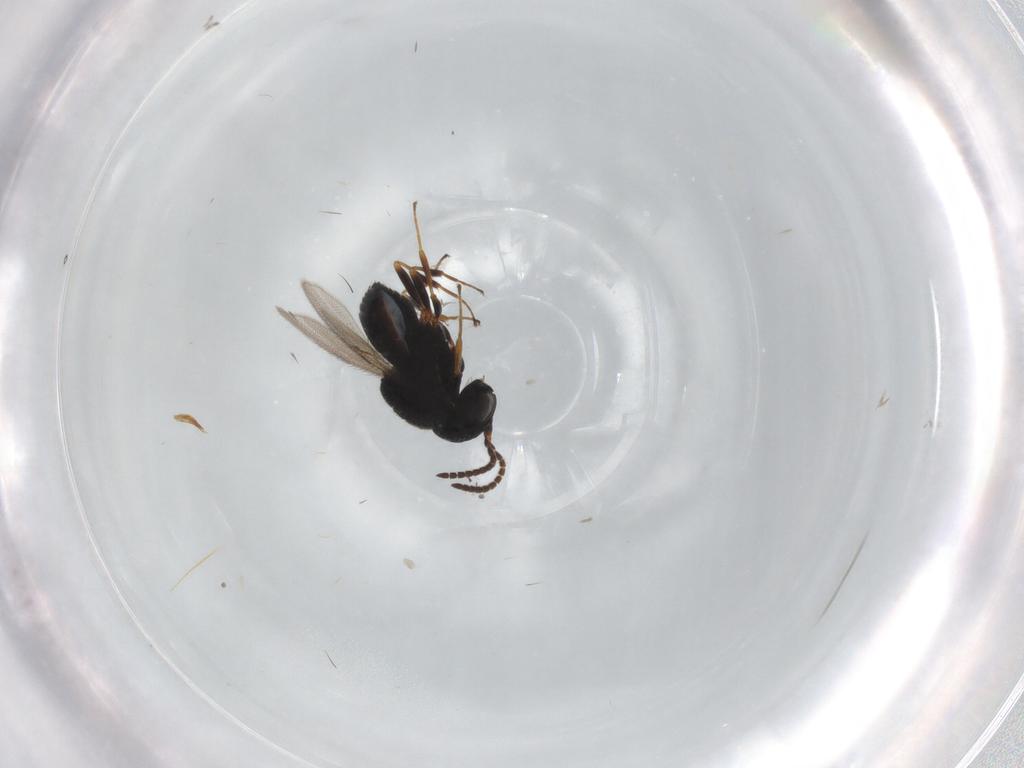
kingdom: Animalia
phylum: Arthropoda
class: Insecta
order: Hymenoptera
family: Scelionidae
